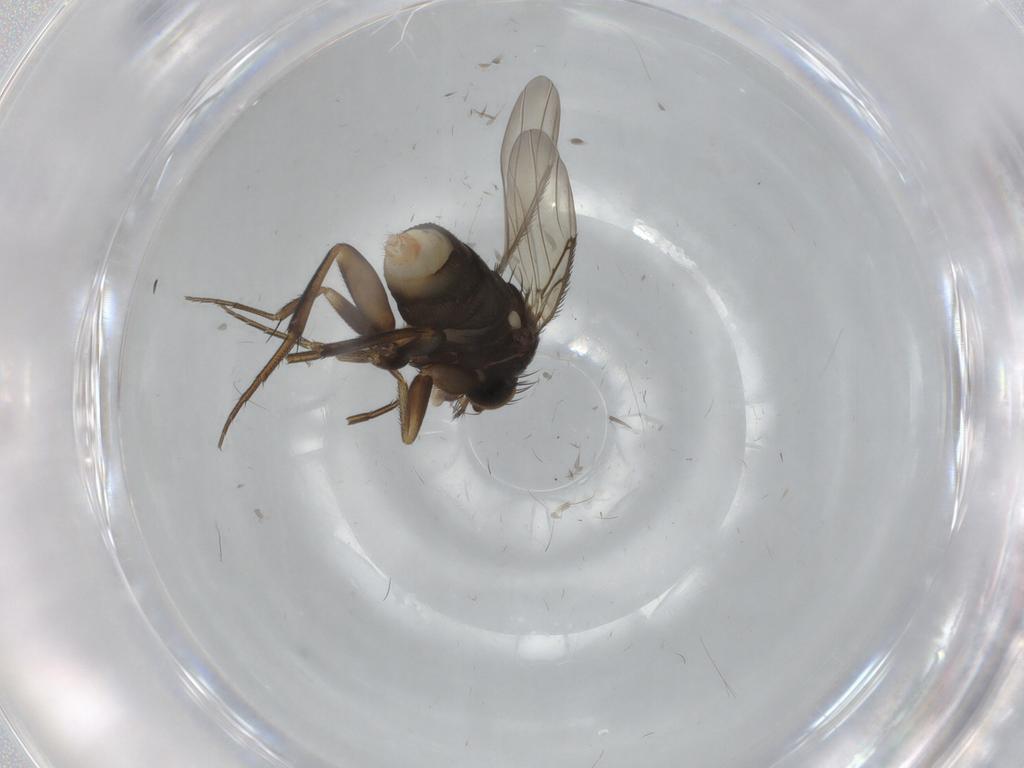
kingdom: Animalia
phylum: Arthropoda
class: Insecta
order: Diptera
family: Phoridae
